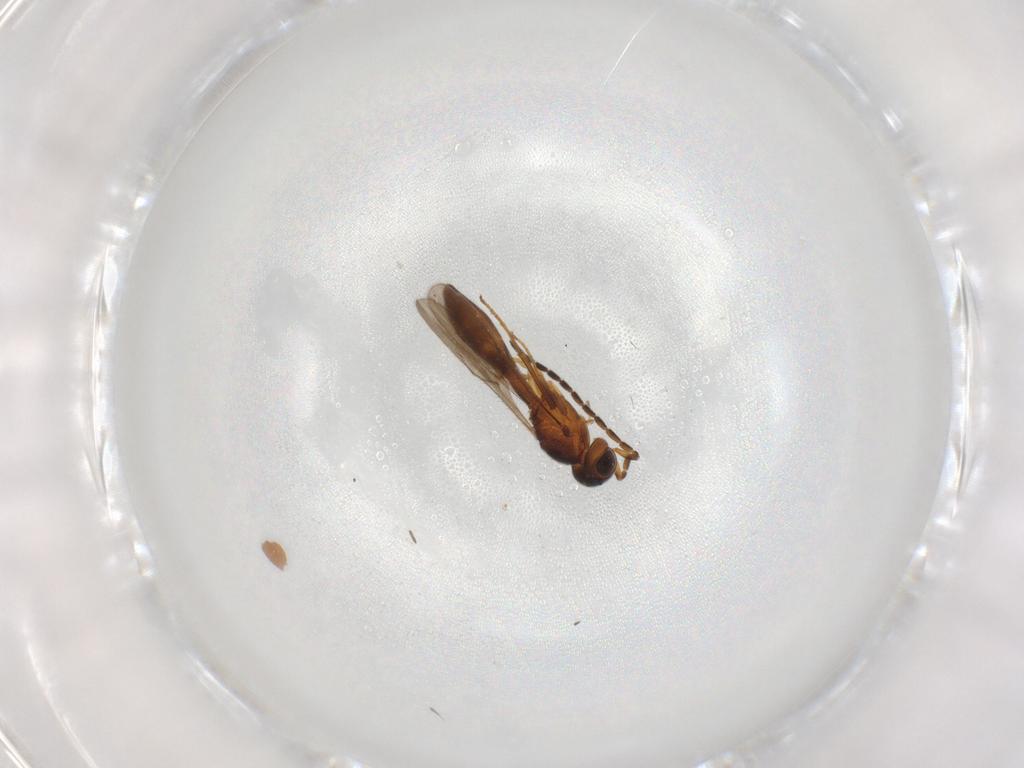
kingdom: Animalia
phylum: Arthropoda
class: Insecta
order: Hymenoptera
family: Scelionidae
